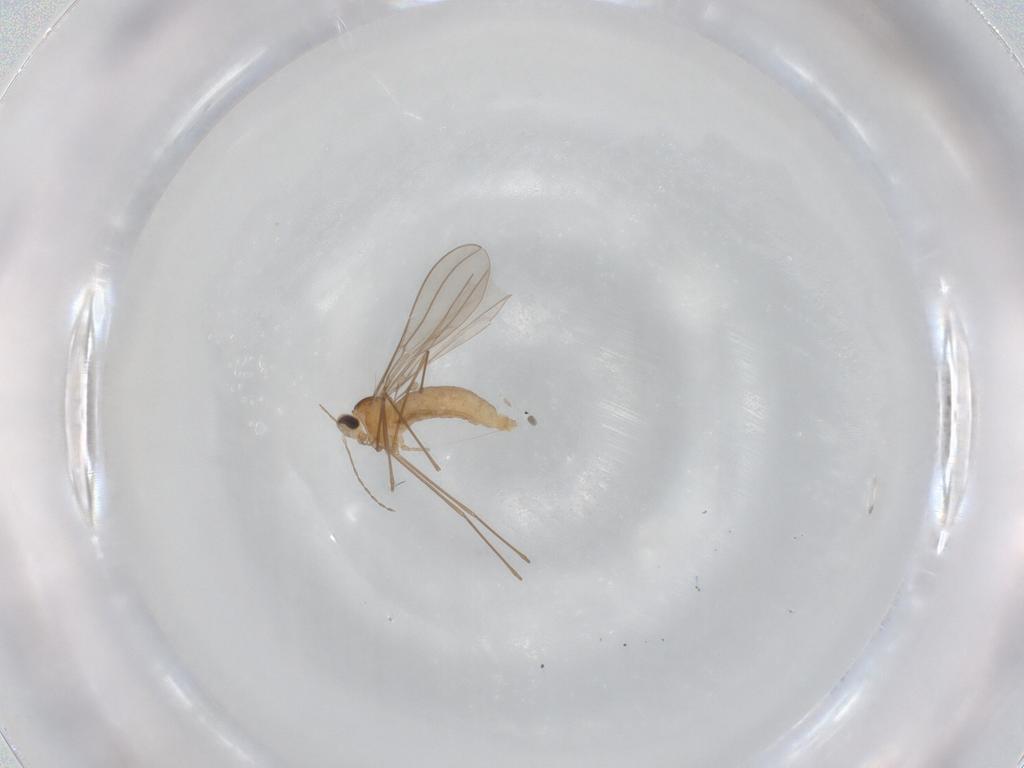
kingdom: Animalia
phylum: Arthropoda
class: Insecta
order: Diptera
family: Cecidomyiidae
